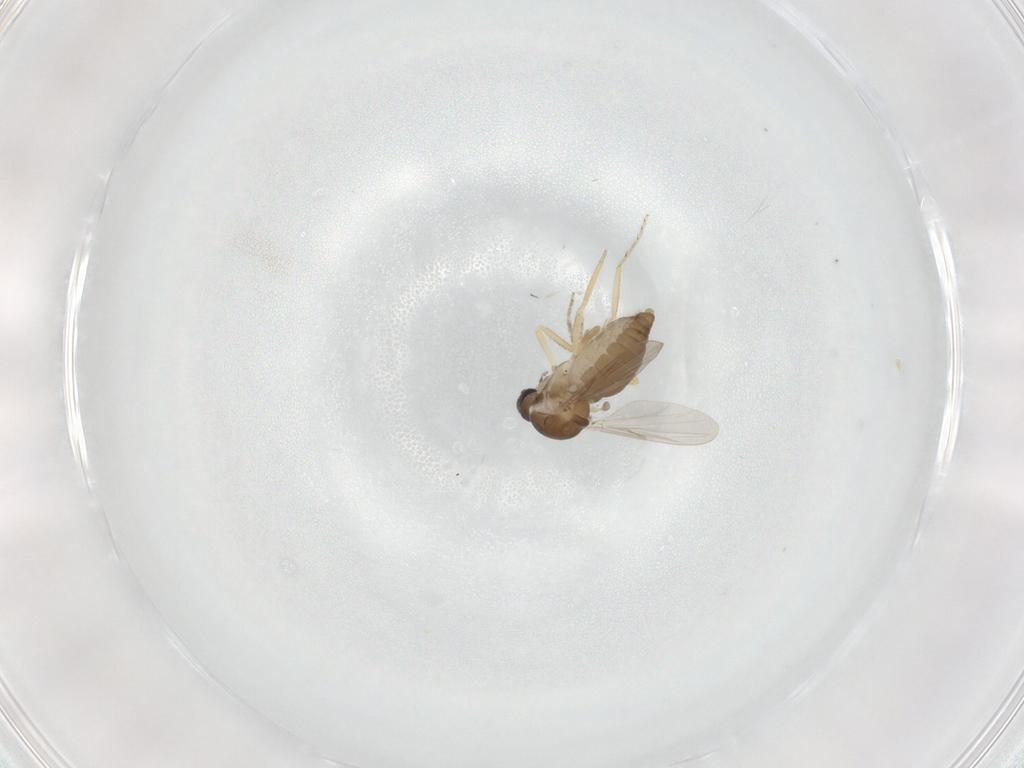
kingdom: Animalia
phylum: Arthropoda
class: Insecta
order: Diptera
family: Ceratopogonidae
